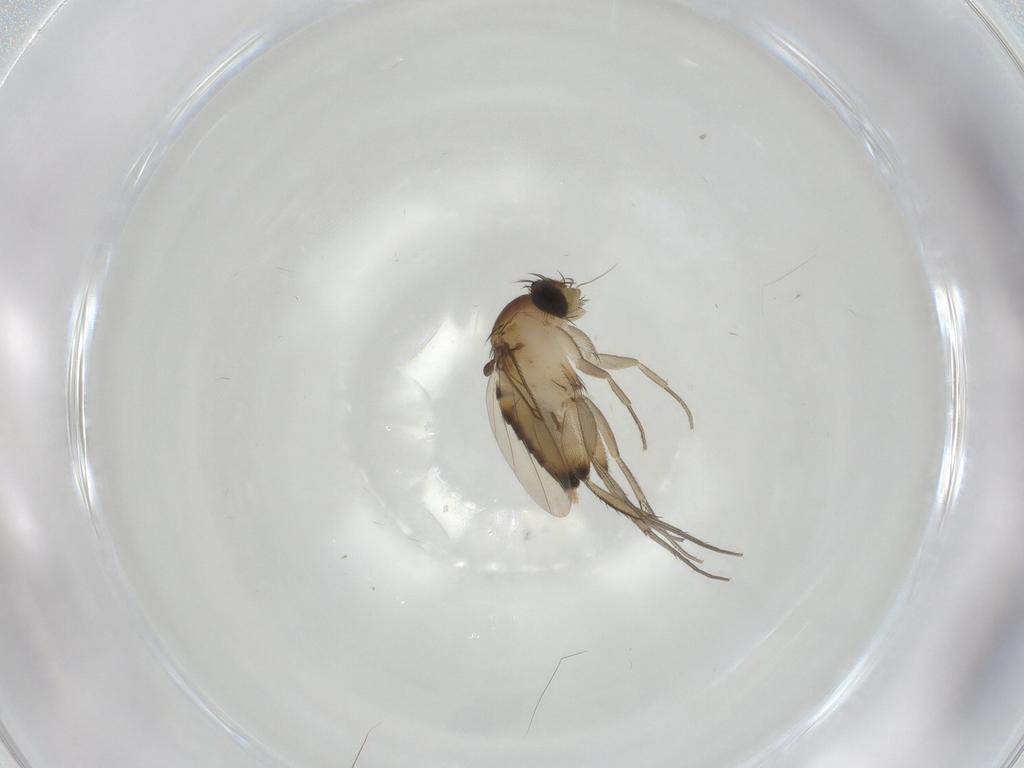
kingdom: Animalia
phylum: Arthropoda
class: Insecta
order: Diptera
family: Phoridae
